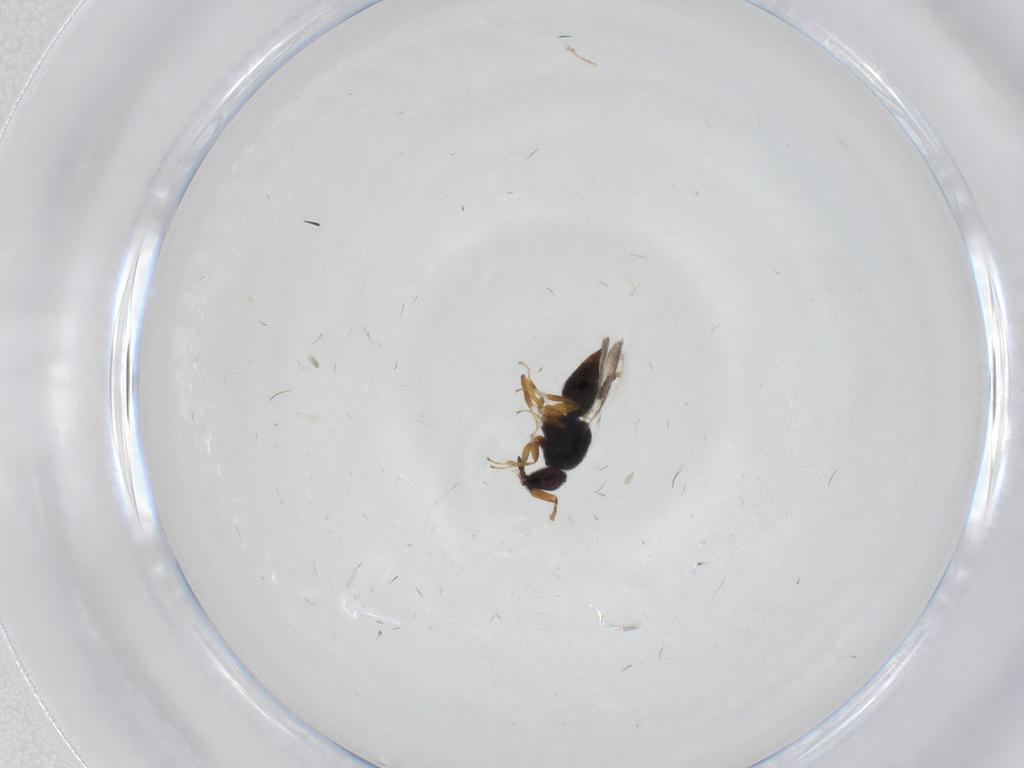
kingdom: Animalia
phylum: Arthropoda
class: Insecta
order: Hymenoptera
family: Ceraphronidae
